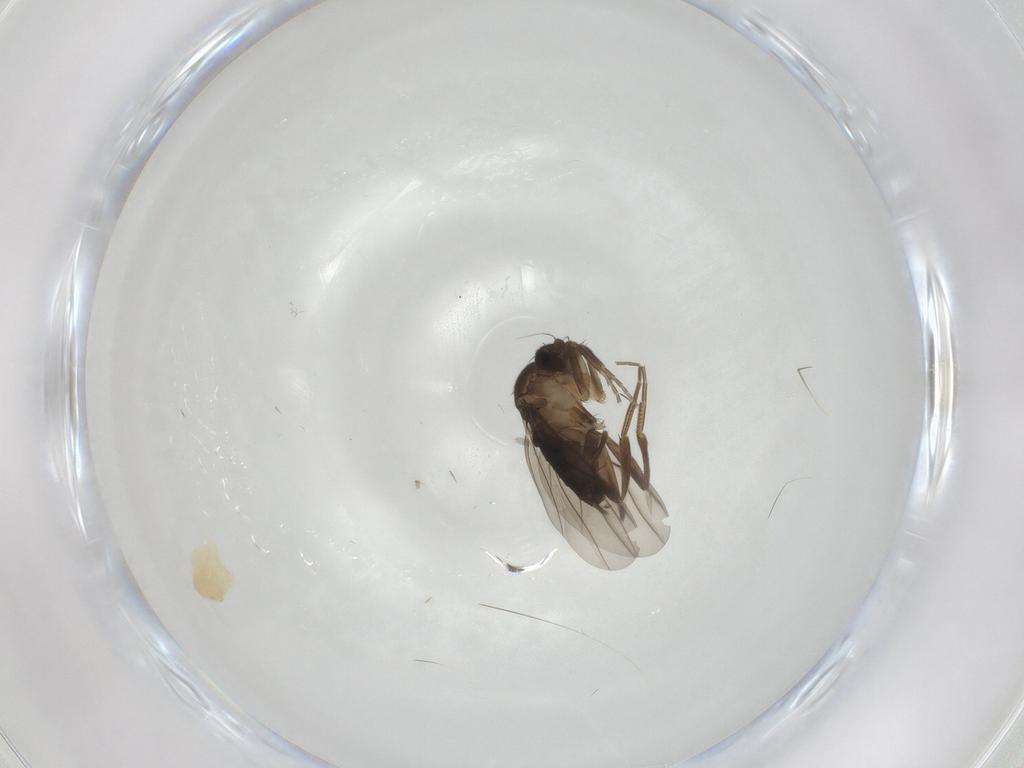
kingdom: Animalia
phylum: Arthropoda
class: Insecta
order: Diptera
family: Phoridae
